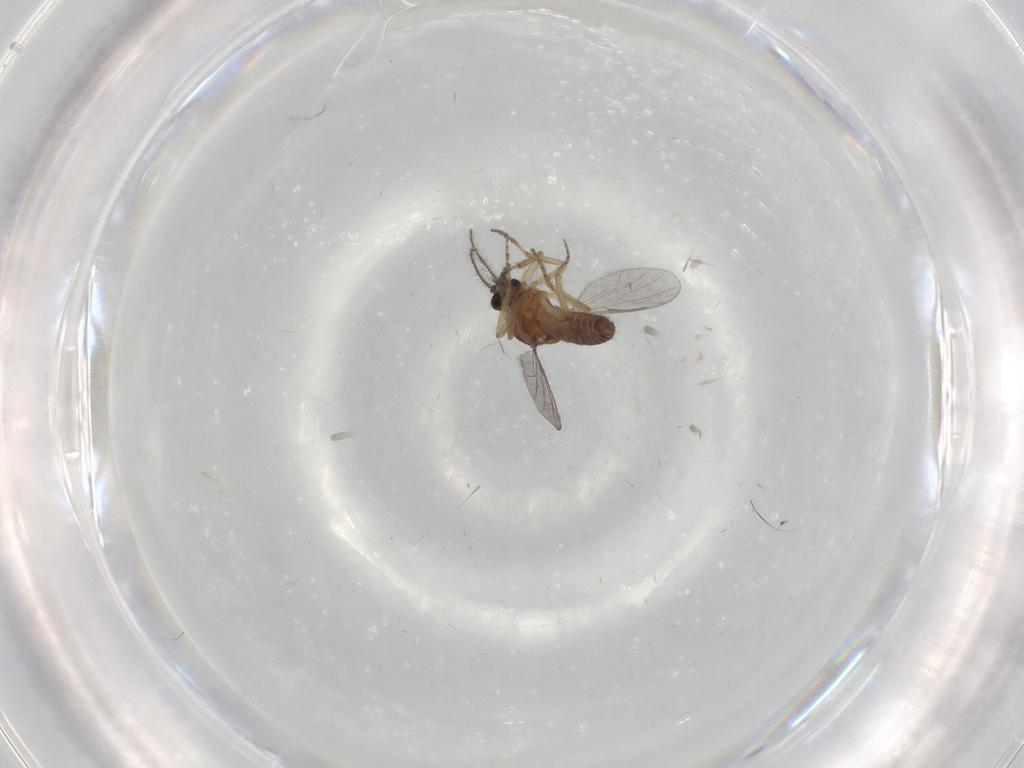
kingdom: Animalia
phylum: Arthropoda
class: Insecta
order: Diptera
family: Ceratopogonidae
